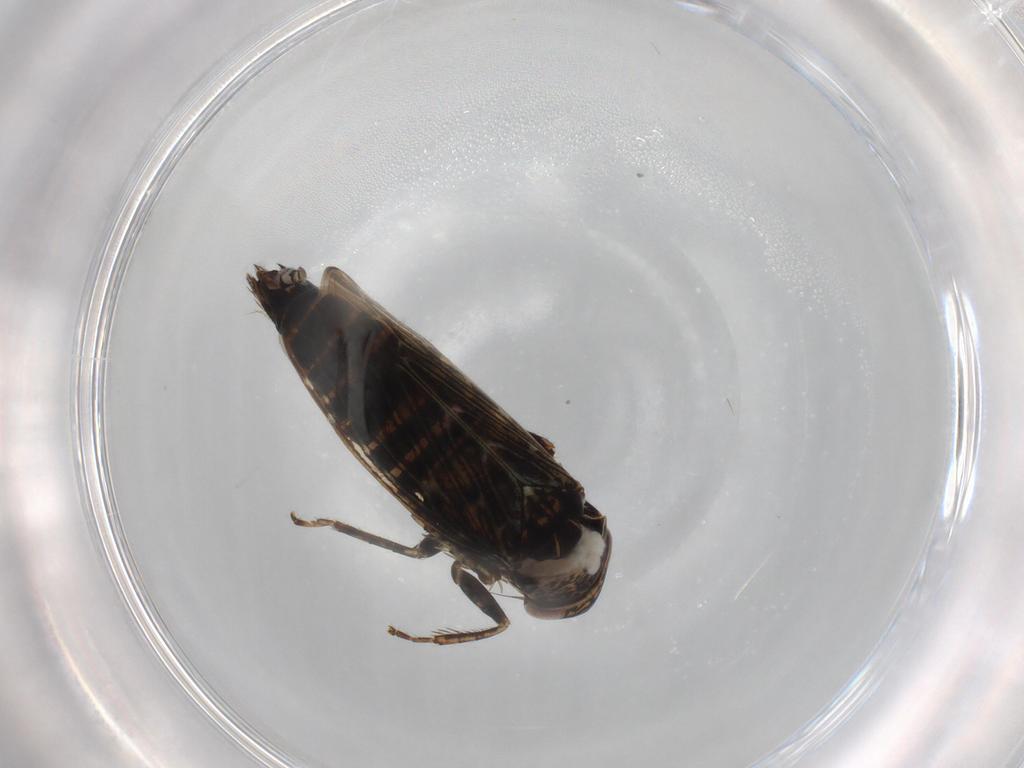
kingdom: Animalia
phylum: Arthropoda
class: Insecta
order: Hemiptera
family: Cicadellidae
